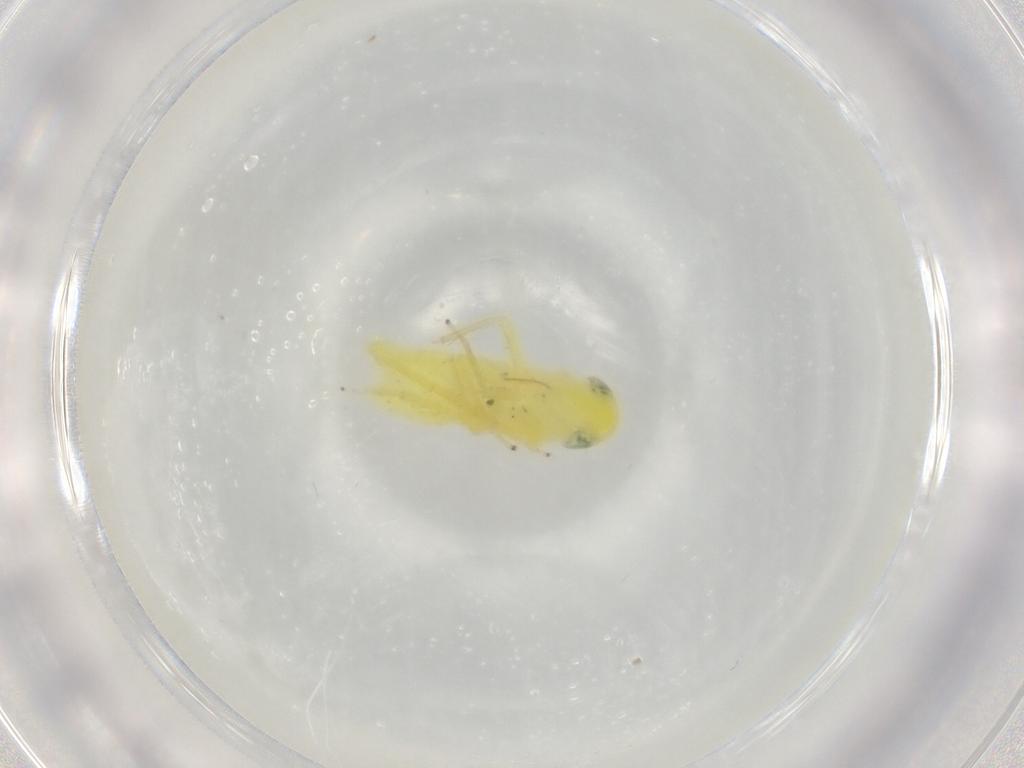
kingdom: Animalia
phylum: Arthropoda
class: Insecta
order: Hemiptera
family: Cicadellidae
